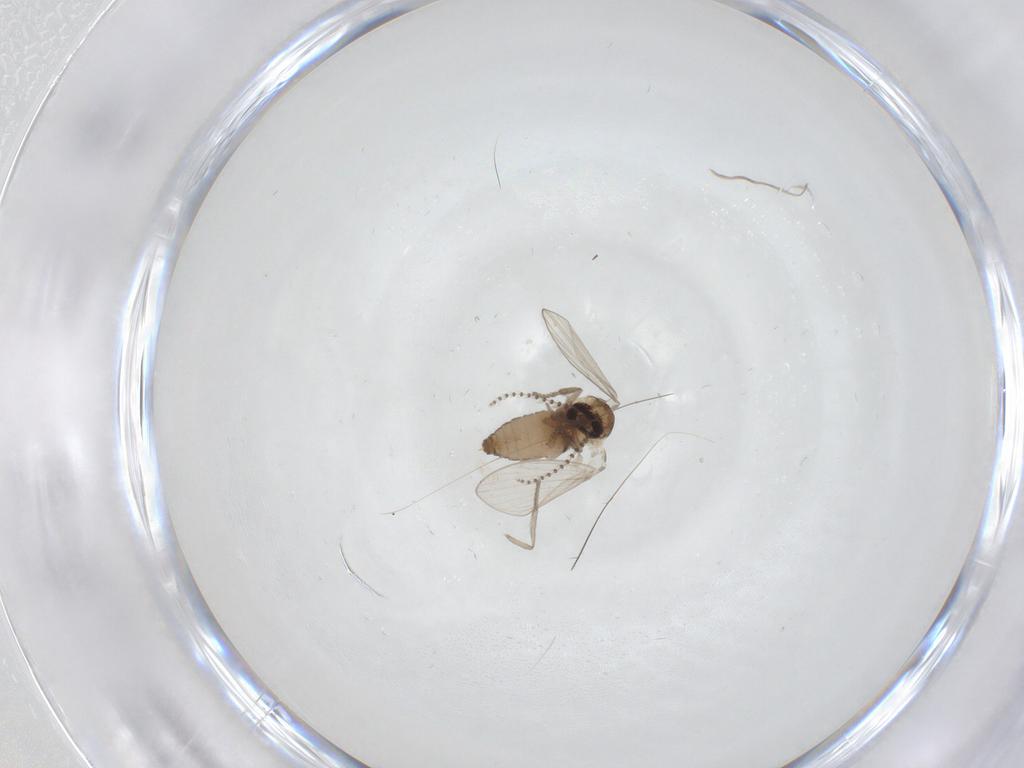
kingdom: Animalia
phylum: Arthropoda
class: Insecta
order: Diptera
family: Psychodidae
